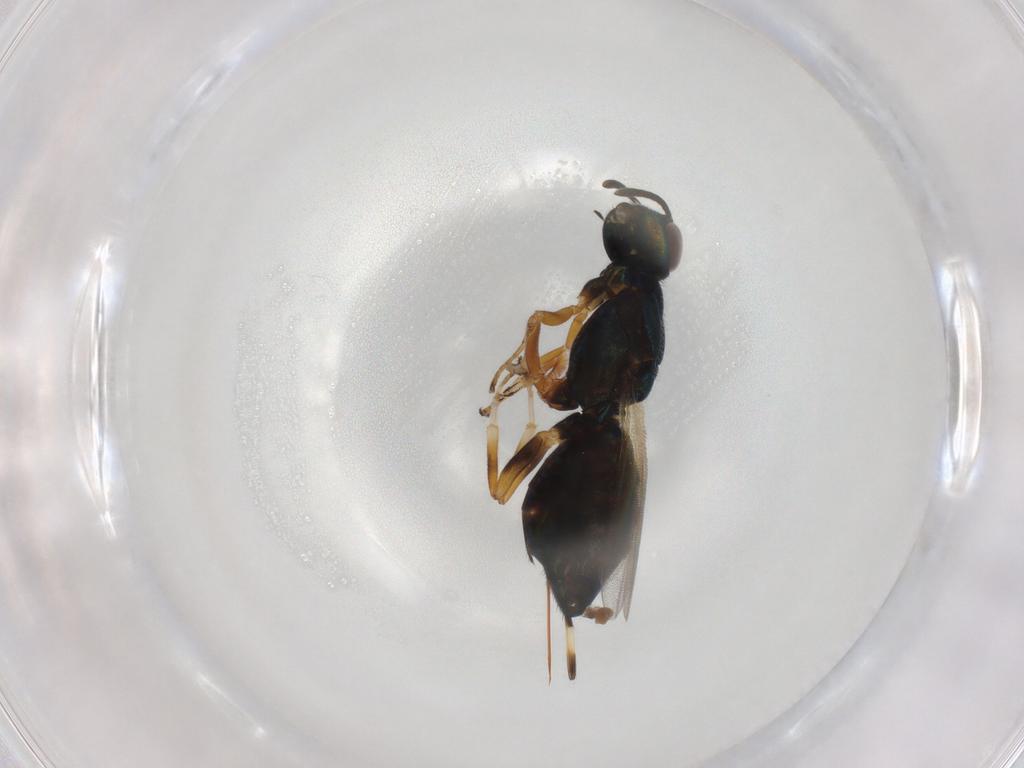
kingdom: Animalia
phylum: Arthropoda
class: Insecta
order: Hymenoptera
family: Eupelmidae
